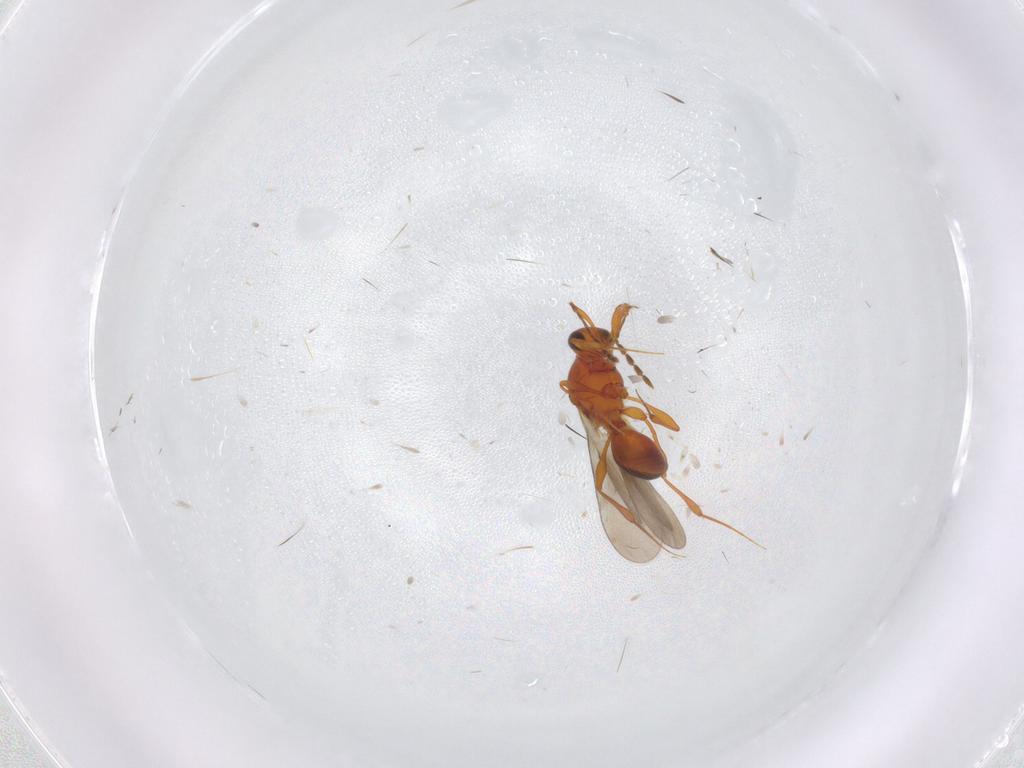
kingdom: Animalia
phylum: Arthropoda
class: Insecta
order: Hymenoptera
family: Platygastridae
